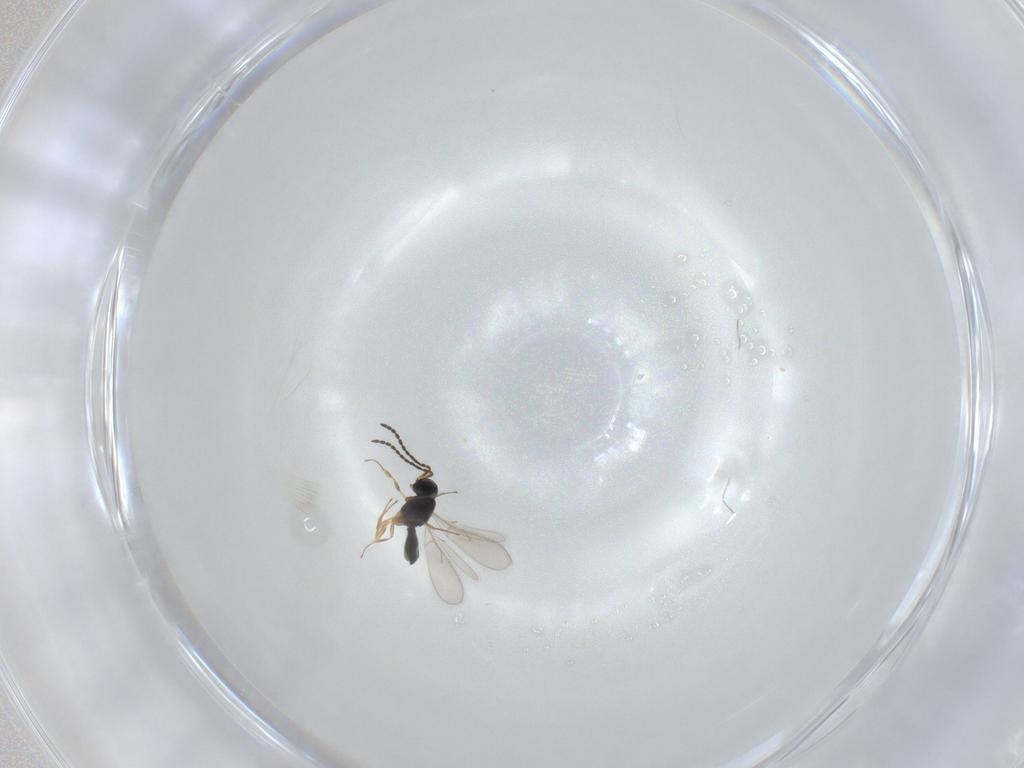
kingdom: Animalia
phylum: Arthropoda
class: Insecta
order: Hymenoptera
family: Scelionidae
